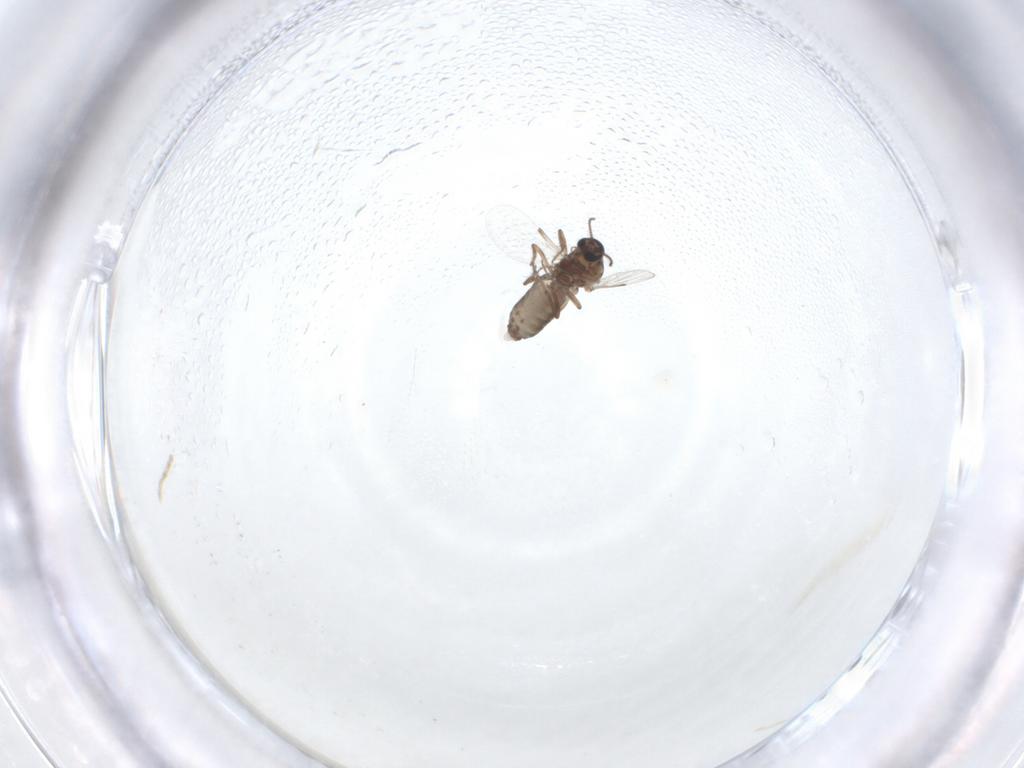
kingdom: Animalia
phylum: Arthropoda
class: Insecta
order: Diptera
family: Ceratopogonidae
